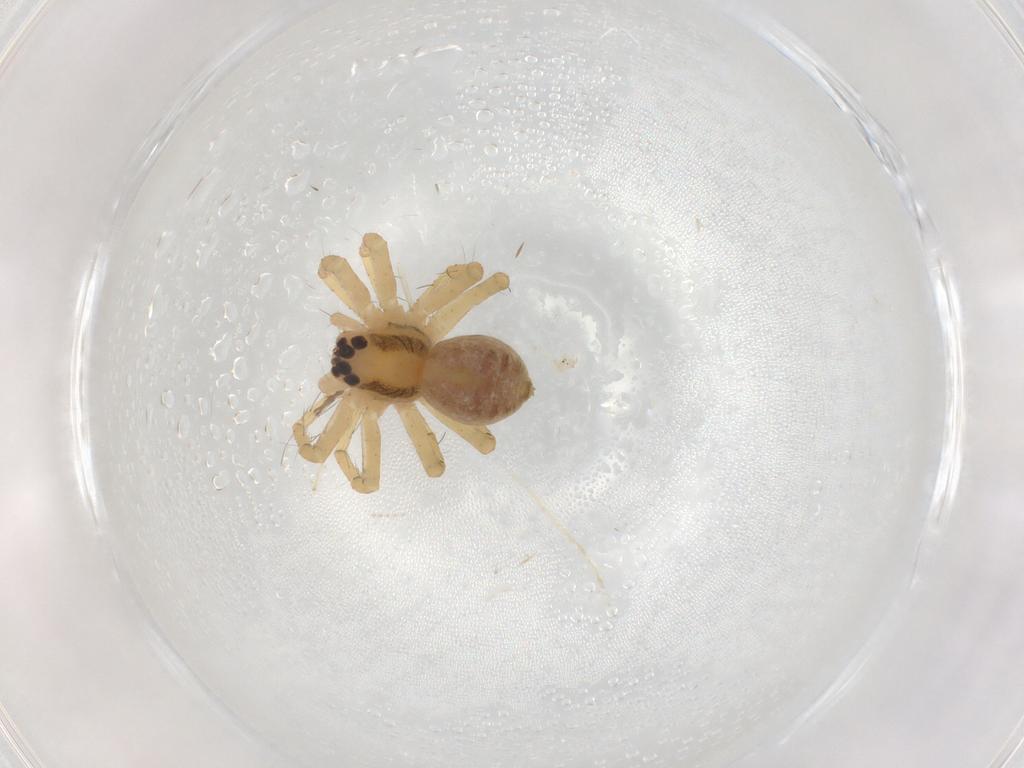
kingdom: Animalia
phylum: Arthropoda
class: Arachnida
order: Araneae
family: Pisauridae
